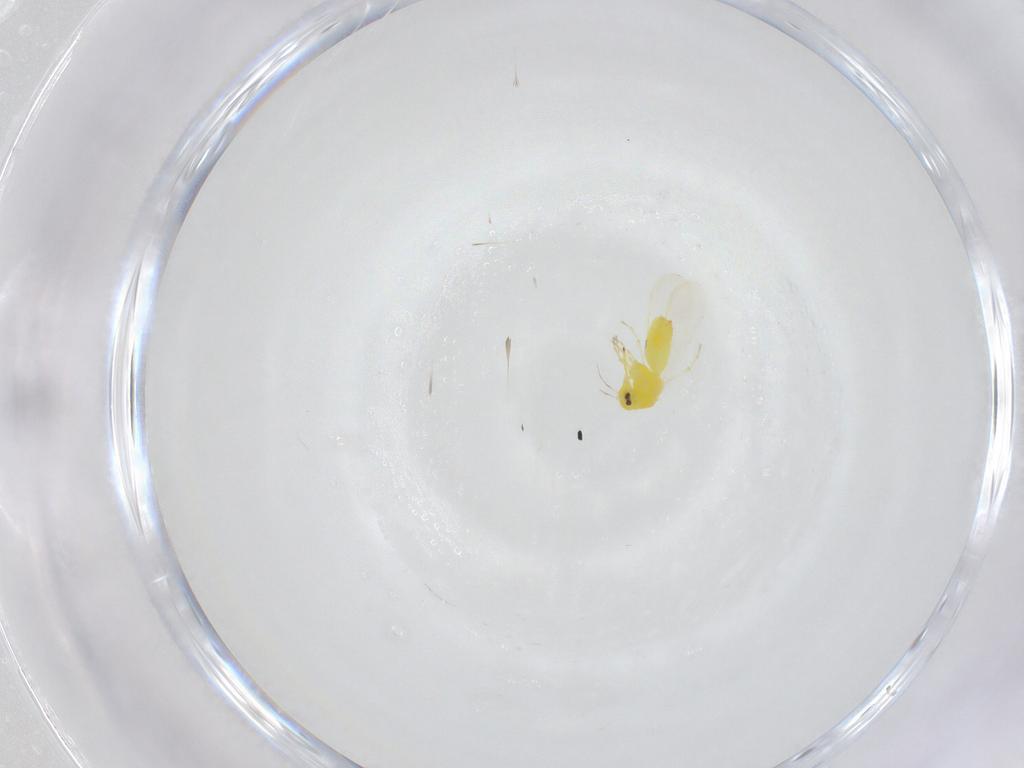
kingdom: Animalia
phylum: Arthropoda
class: Insecta
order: Hemiptera
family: Aleyrodidae
